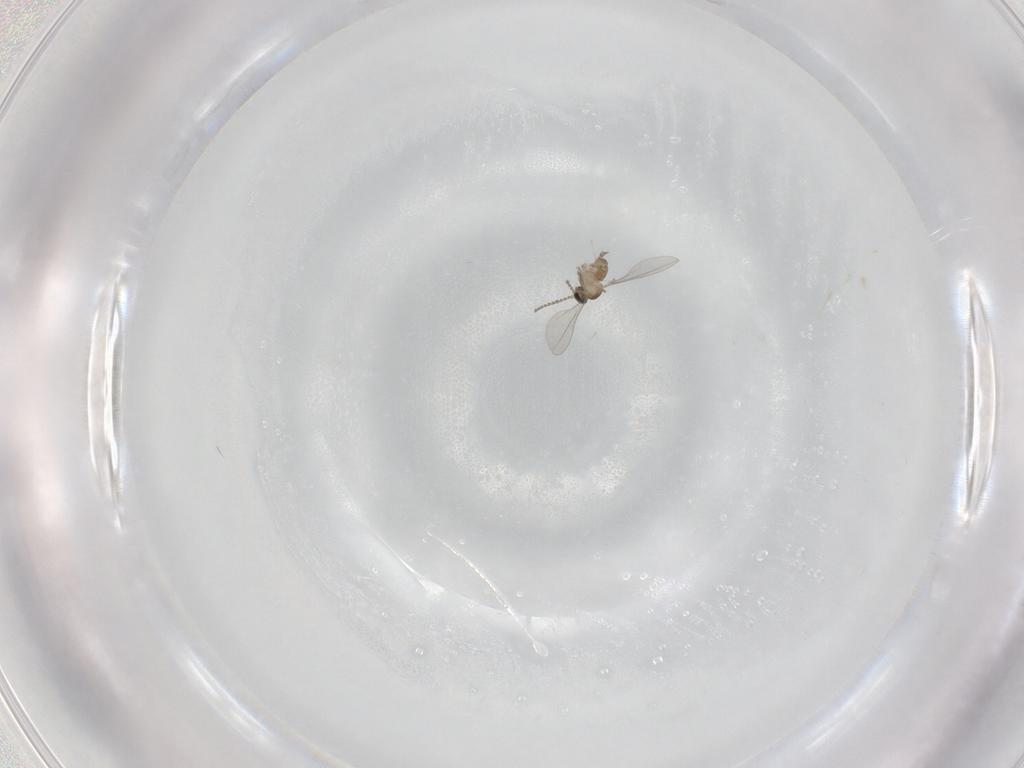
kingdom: Animalia
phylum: Arthropoda
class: Insecta
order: Diptera
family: Cecidomyiidae
